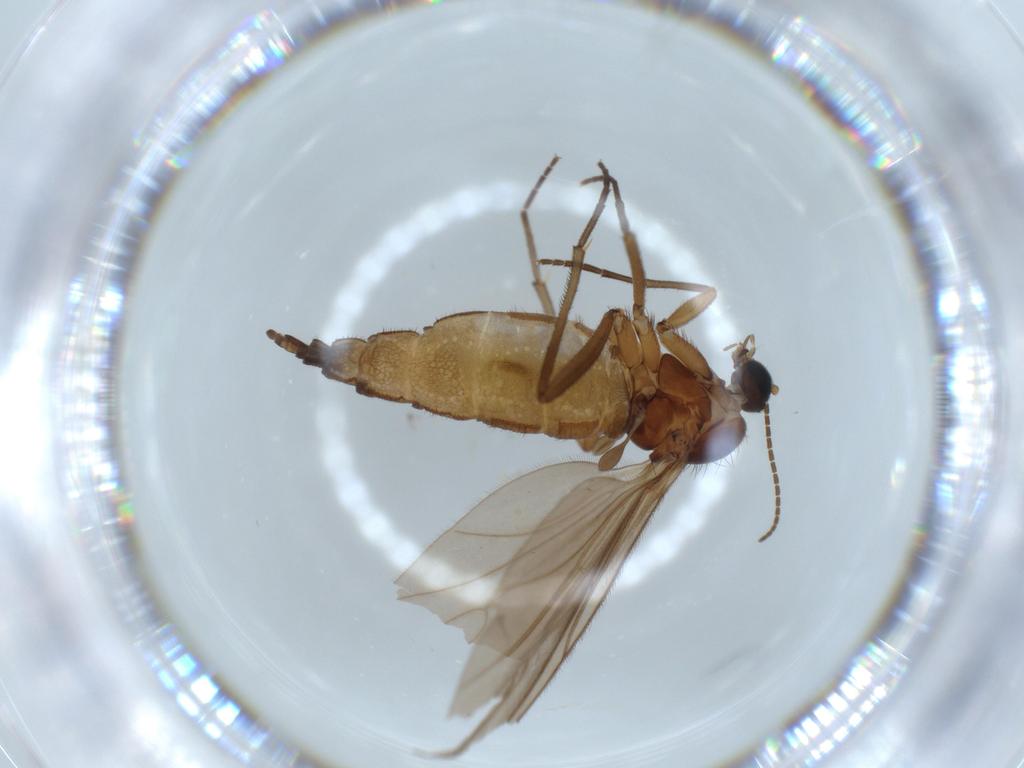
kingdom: Animalia
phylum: Arthropoda
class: Insecta
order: Diptera
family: Sciaridae
